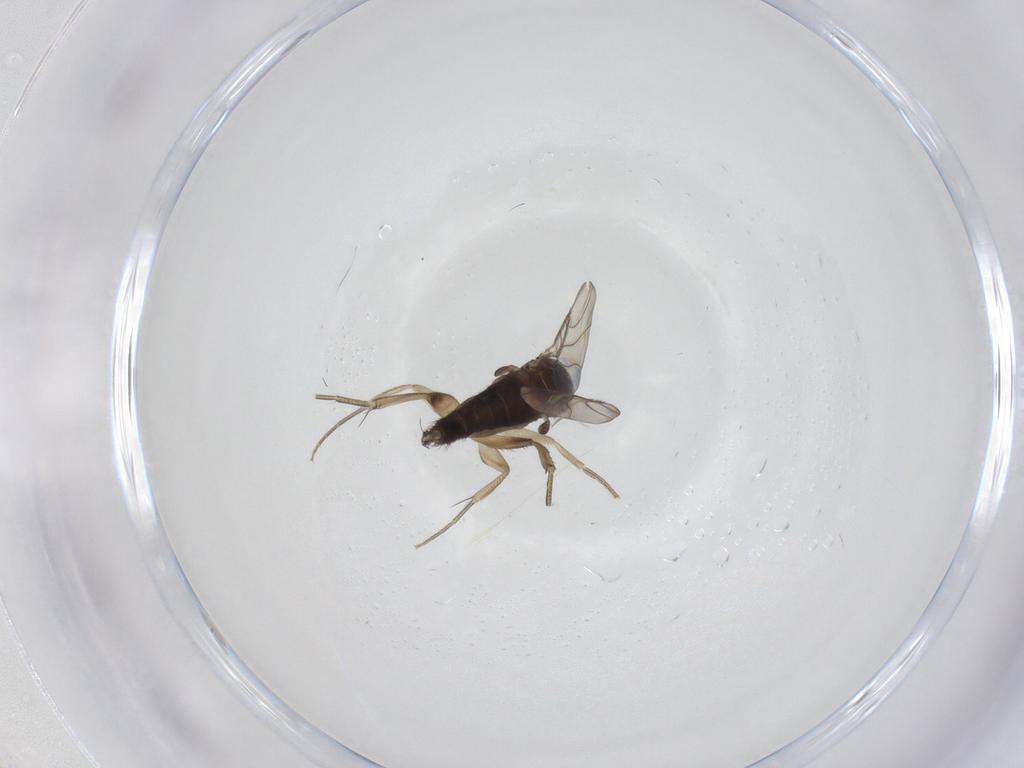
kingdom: Animalia
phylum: Arthropoda
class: Insecta
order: Diptera
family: Phoridae
